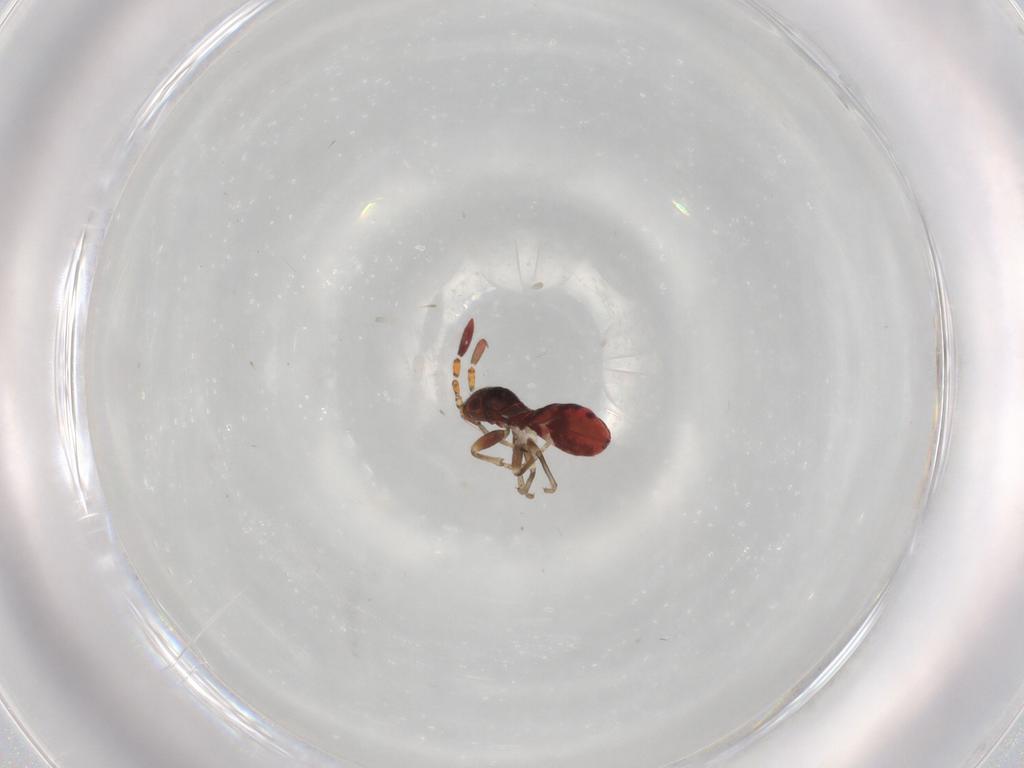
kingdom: Animalia
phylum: Arthropoda
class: Insecta
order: Hemiptera
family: Rhyparochromidae
